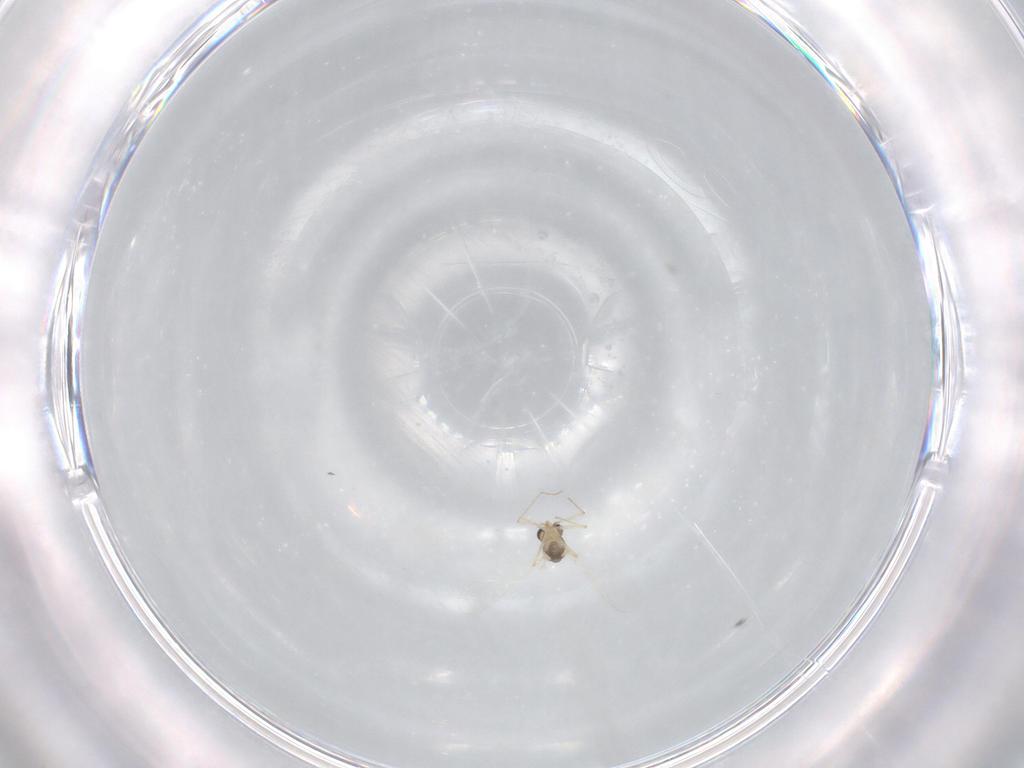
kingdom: Animalia
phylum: Arthropoda
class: Insecta
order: Diptera
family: Chironomidae
